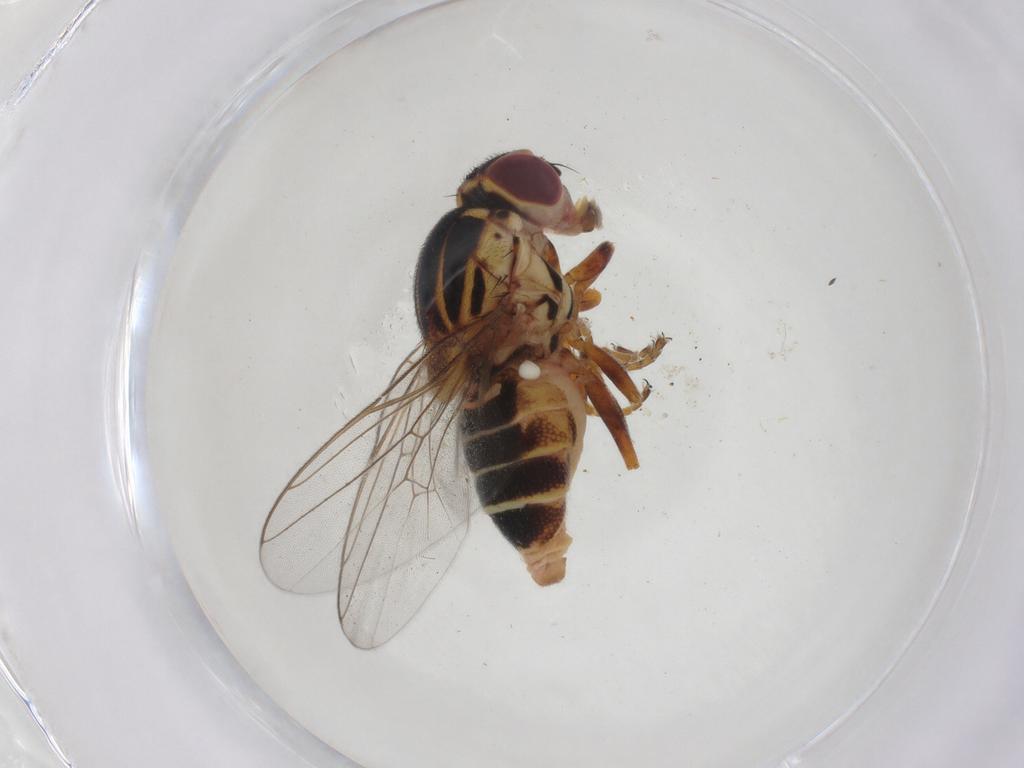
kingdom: Animalia
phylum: Arthropoda
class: Insecta
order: Diptera
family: Chloropidae
